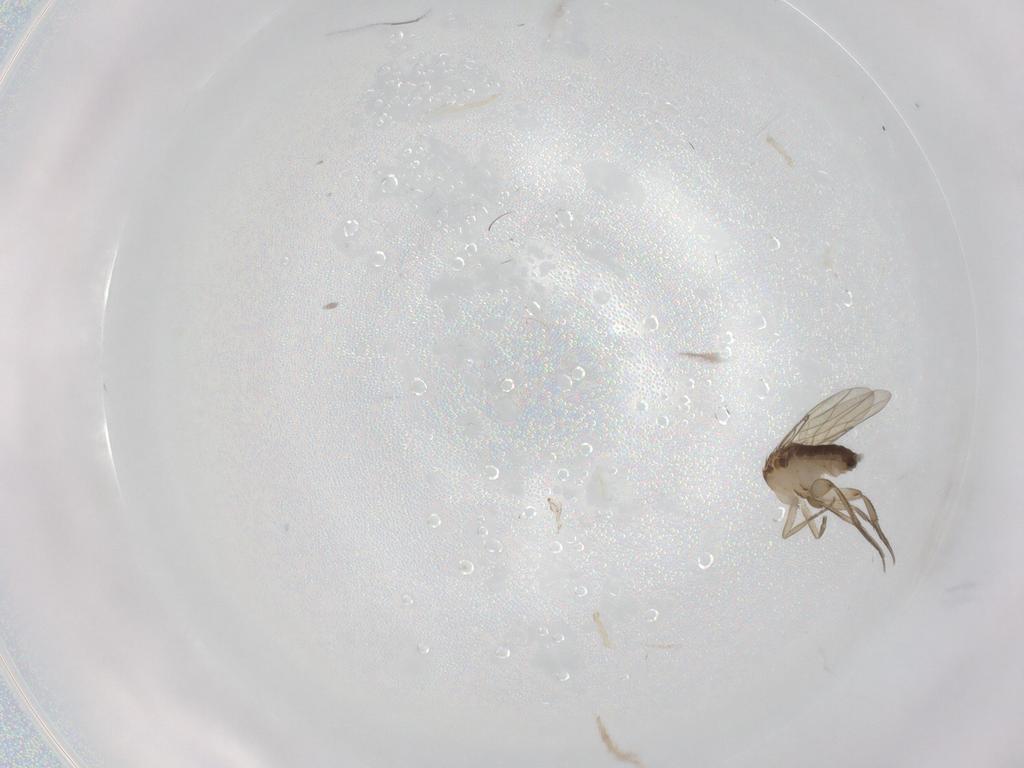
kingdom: Animalia
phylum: Arthropoda
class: Insecta
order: Diptera
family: Phoridae
